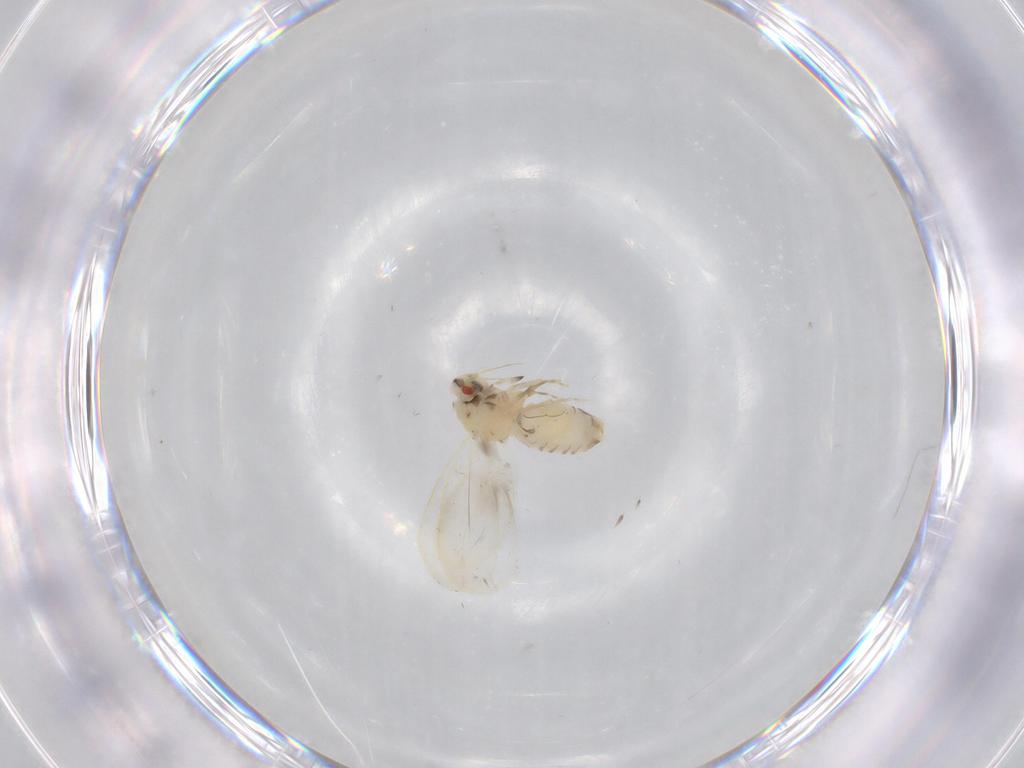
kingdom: Animalia
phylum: Arthropoda
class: Insecta
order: Hemiptera
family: Aleyrodidae
